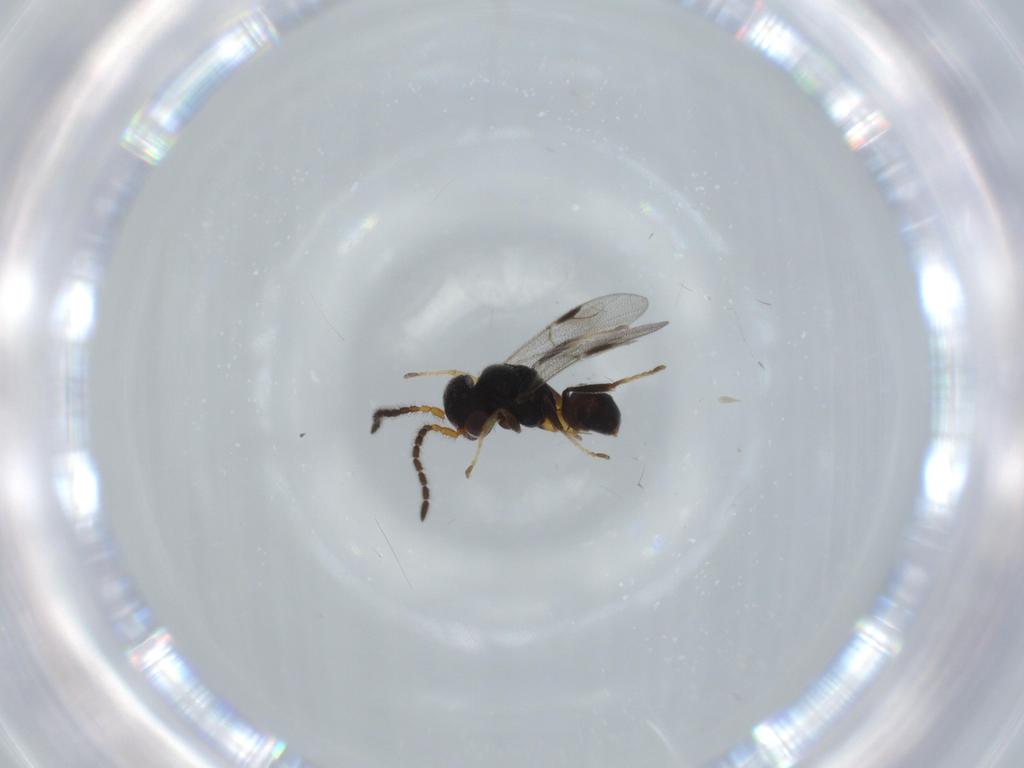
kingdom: Animalia
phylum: Arthropoda
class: Insecta
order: Hymenoptera
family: Dryinidae
